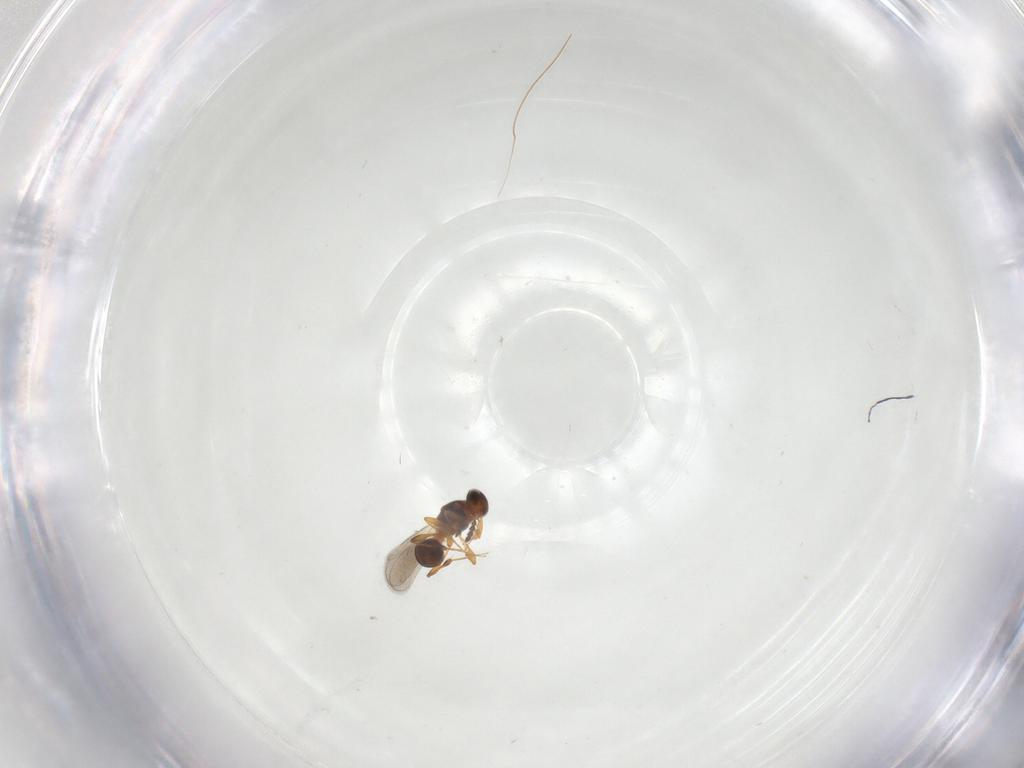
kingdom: Animalia
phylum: Arthropoda
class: Insecta
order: Hymenoptera
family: Platygastridae
